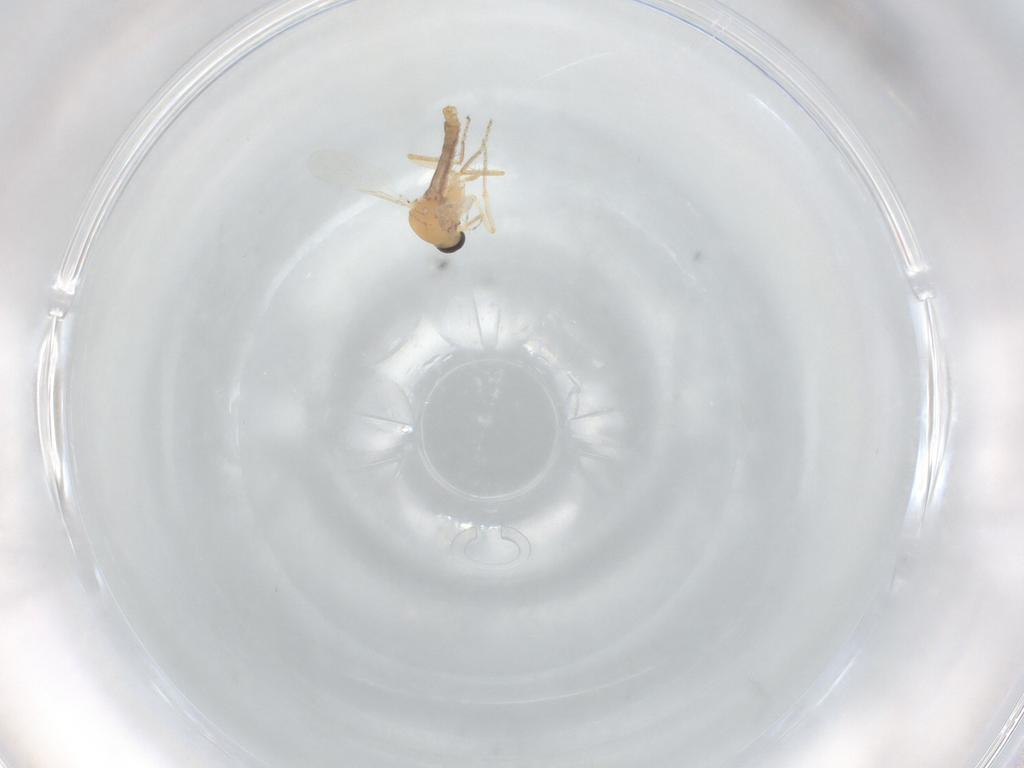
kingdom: Animalia
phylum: Arthropoda
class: Insecta
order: Diptera
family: Ceratopogonidae
